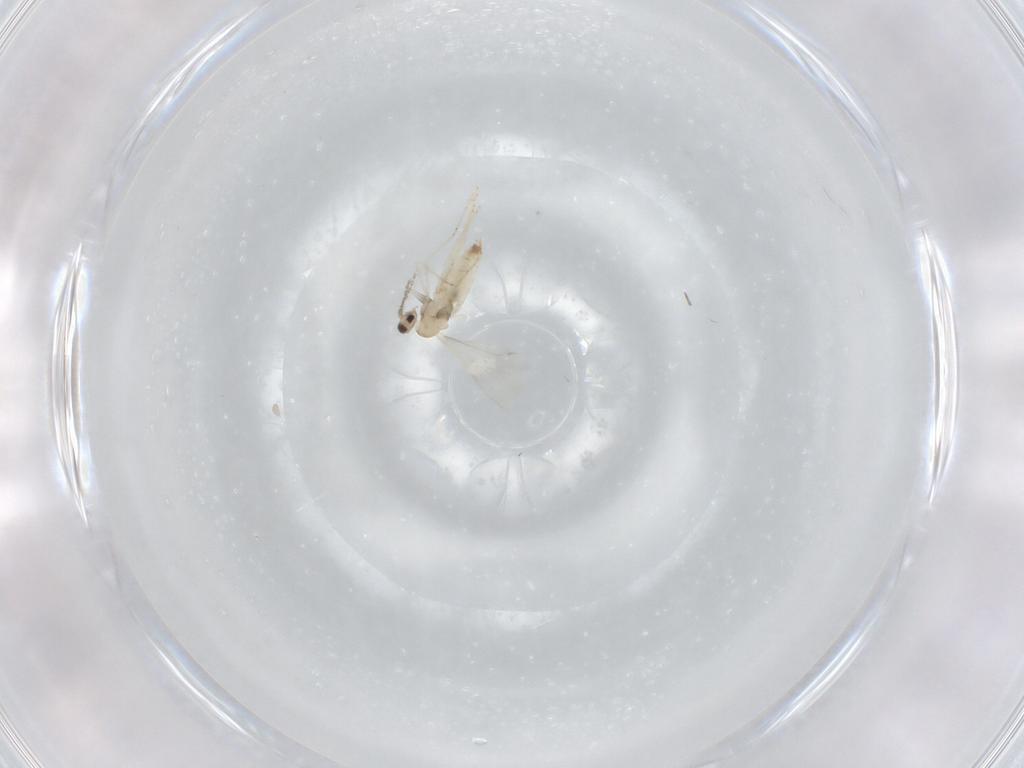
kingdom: Animalia
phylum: Arthropoda
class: Insecta
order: Diptera
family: Cecidomyiidae
